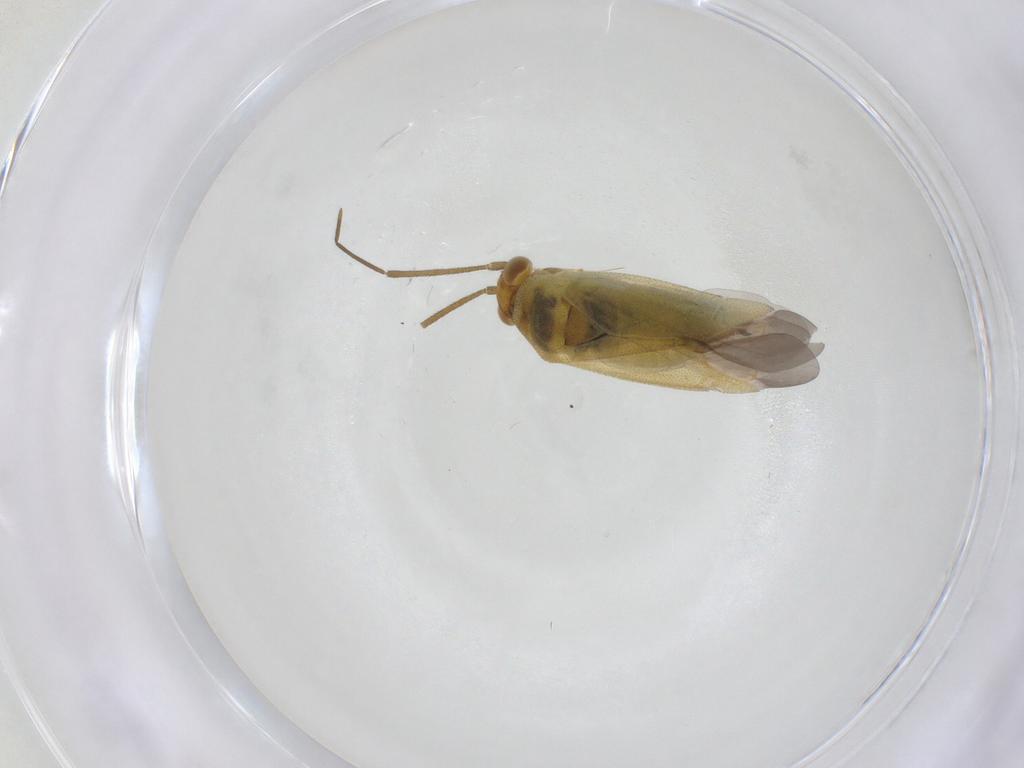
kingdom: Animalia
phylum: Arthropoda
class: Insecta
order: Hemiptera
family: Miridae
